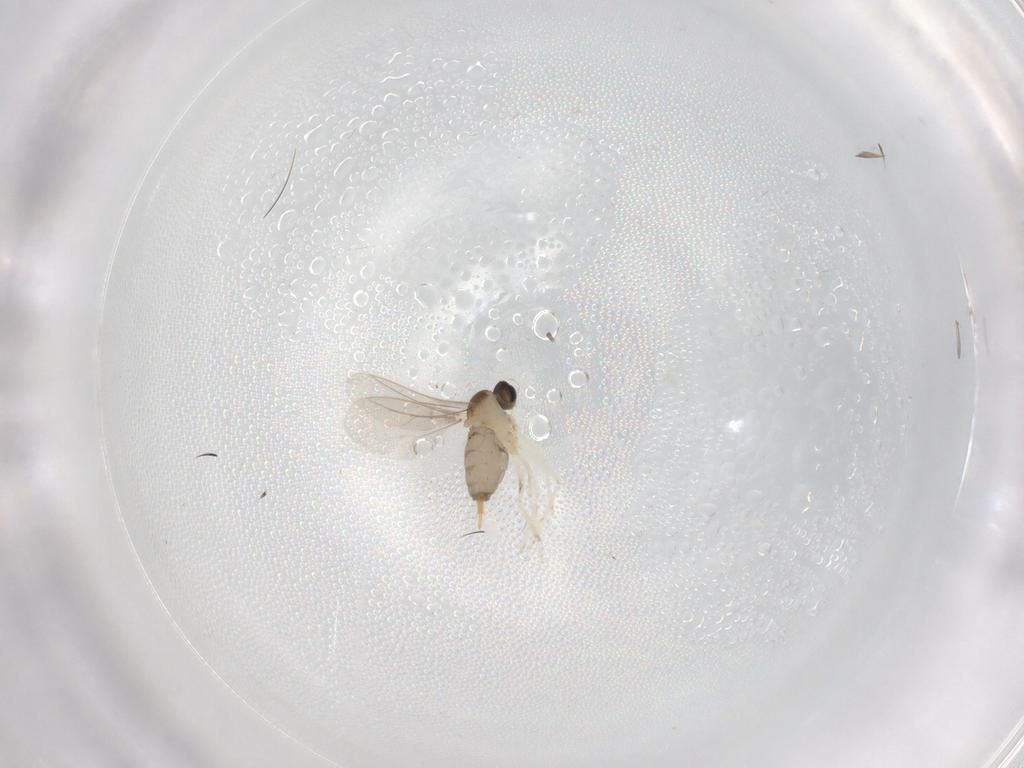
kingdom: Animalia
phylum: Arthropoda
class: Insecta
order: Diptera
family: Cecidomyiidae
